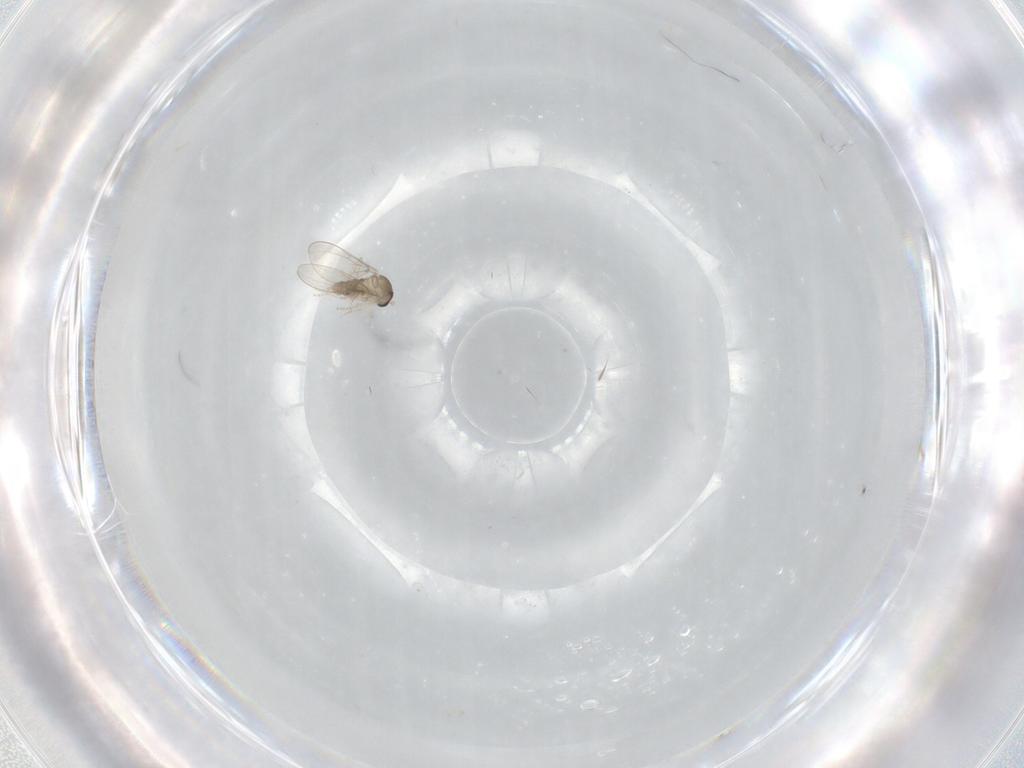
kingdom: Animalia
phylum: Arthropoda
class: Insecta
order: Diptera
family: Cecidomyiidae
